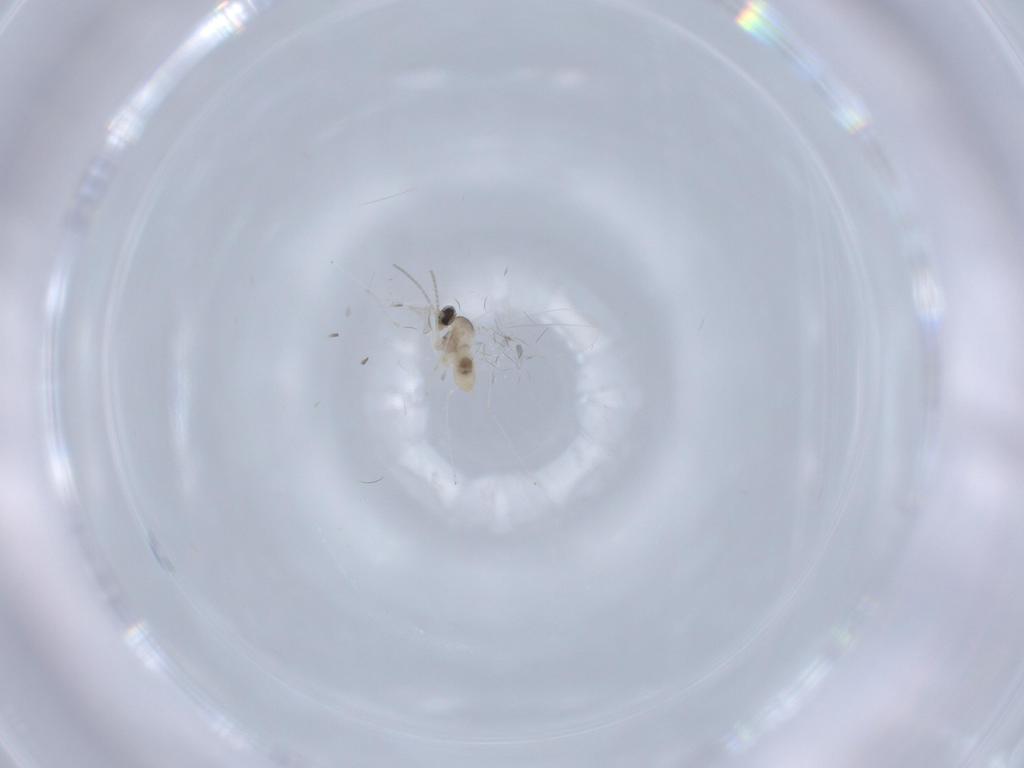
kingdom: Animalia
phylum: Arthropoda
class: Insecta
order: Diptera
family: Cecidomyiidae
